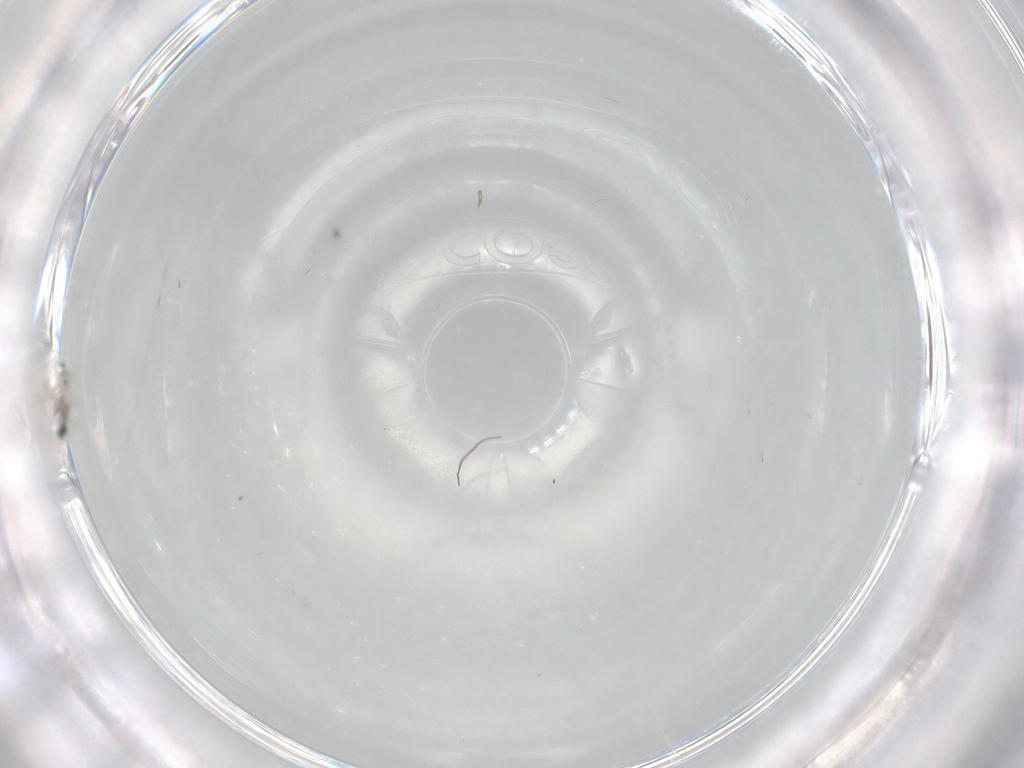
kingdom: Animalia
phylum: Arthropoda
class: Insecta
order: Diptera
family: Cecidomyiidae
